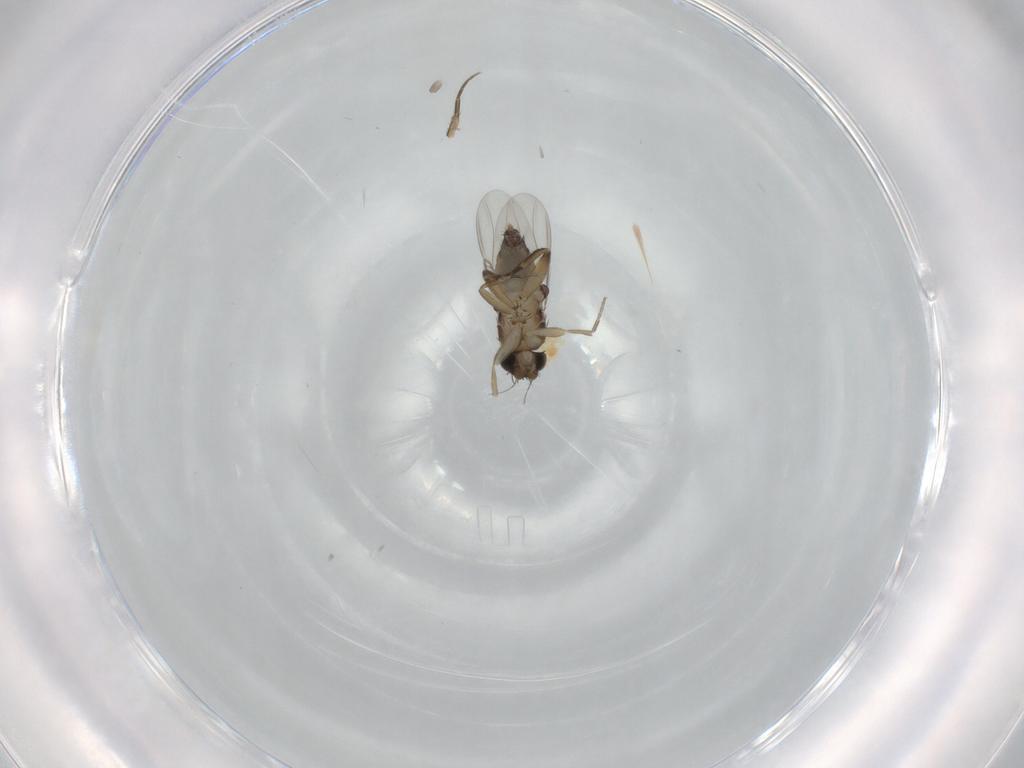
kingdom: Animalia
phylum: Arthropoda
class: Insecta
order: Diptera
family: Phoridae
